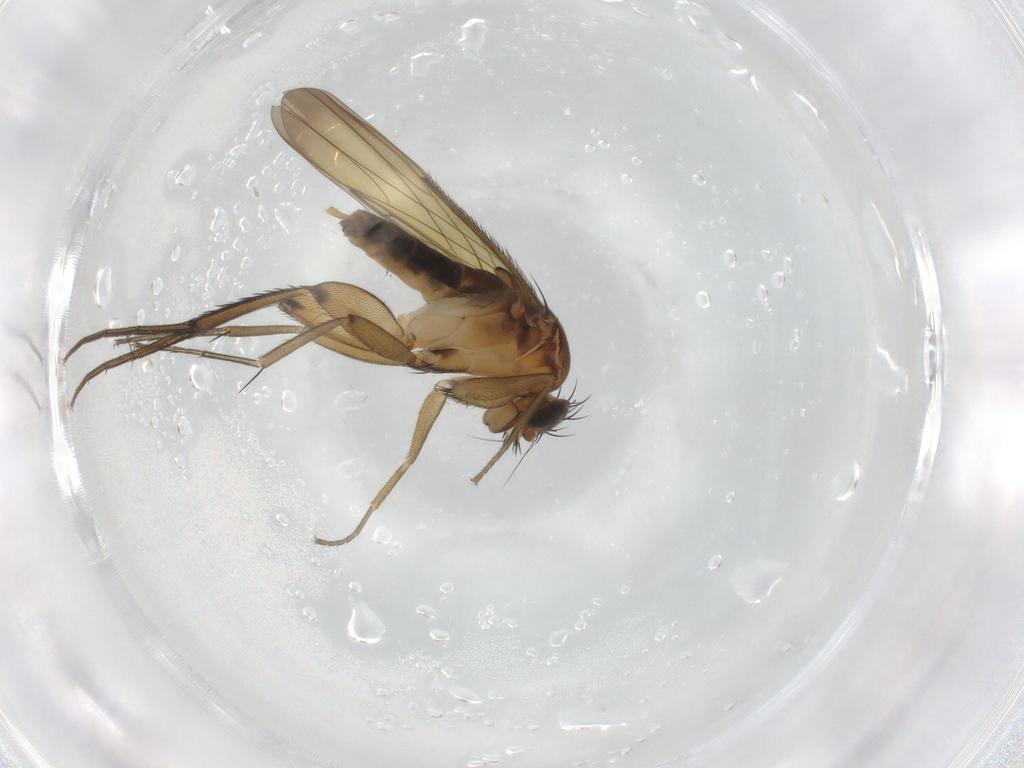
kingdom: Animalia
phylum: Arthropoda
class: Insecta
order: Diptera
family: Phoridae
